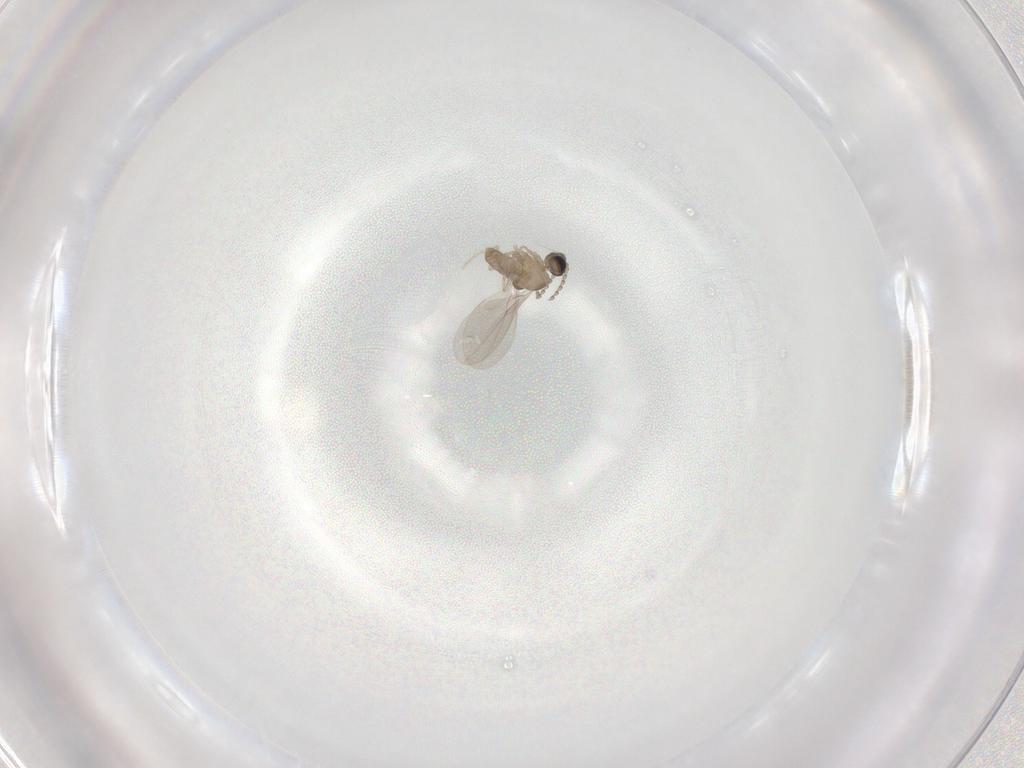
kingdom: Animalia
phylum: Arthropoda
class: Insecta
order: Diptera
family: Cecidomyiidae
